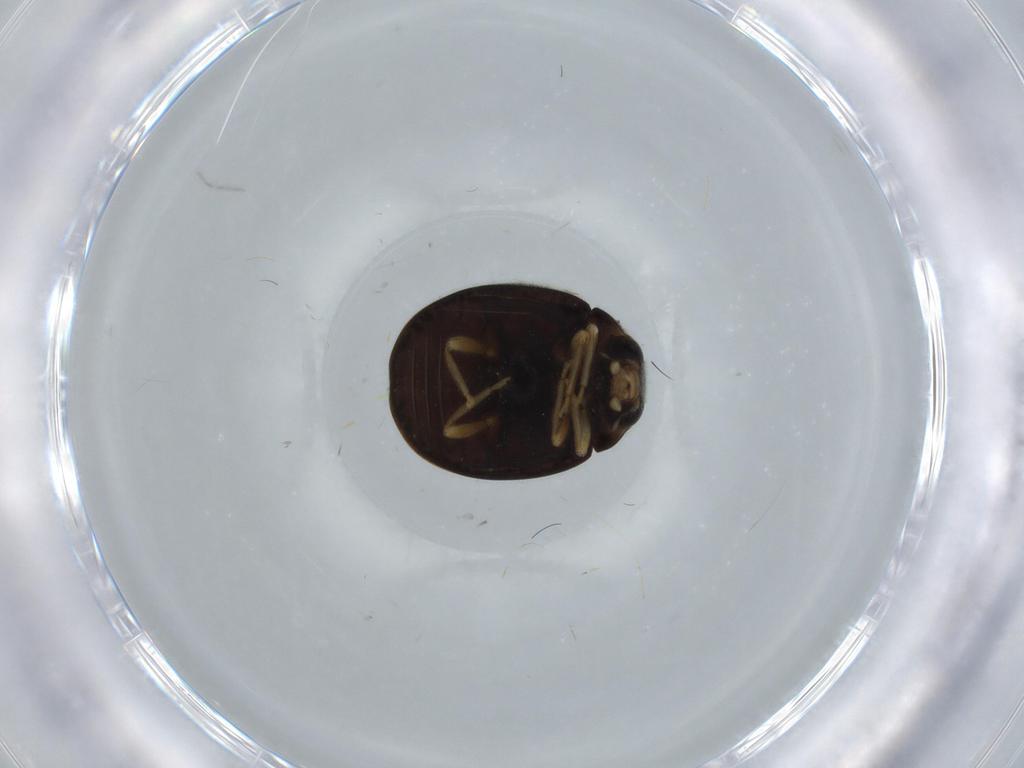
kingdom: Animalia
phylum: Arthropoda
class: Insecta
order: Coleoptera
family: Coccinellidae
